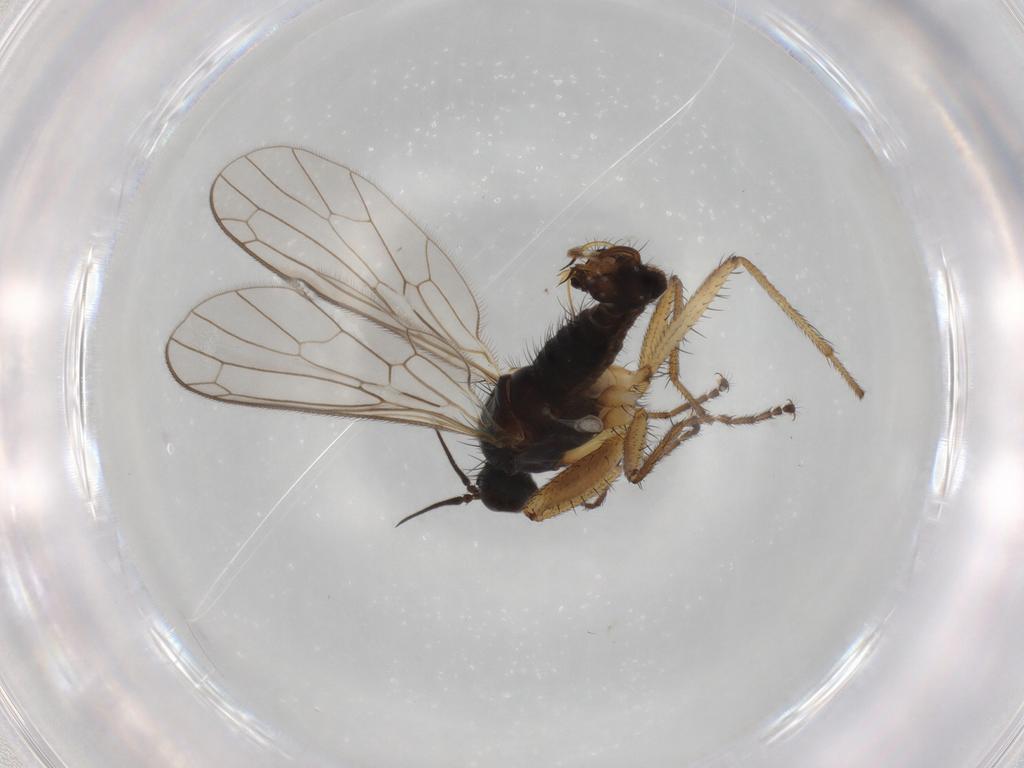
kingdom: Animalia
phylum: Arthropoda
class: Insecta
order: Diptera
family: Empididae
